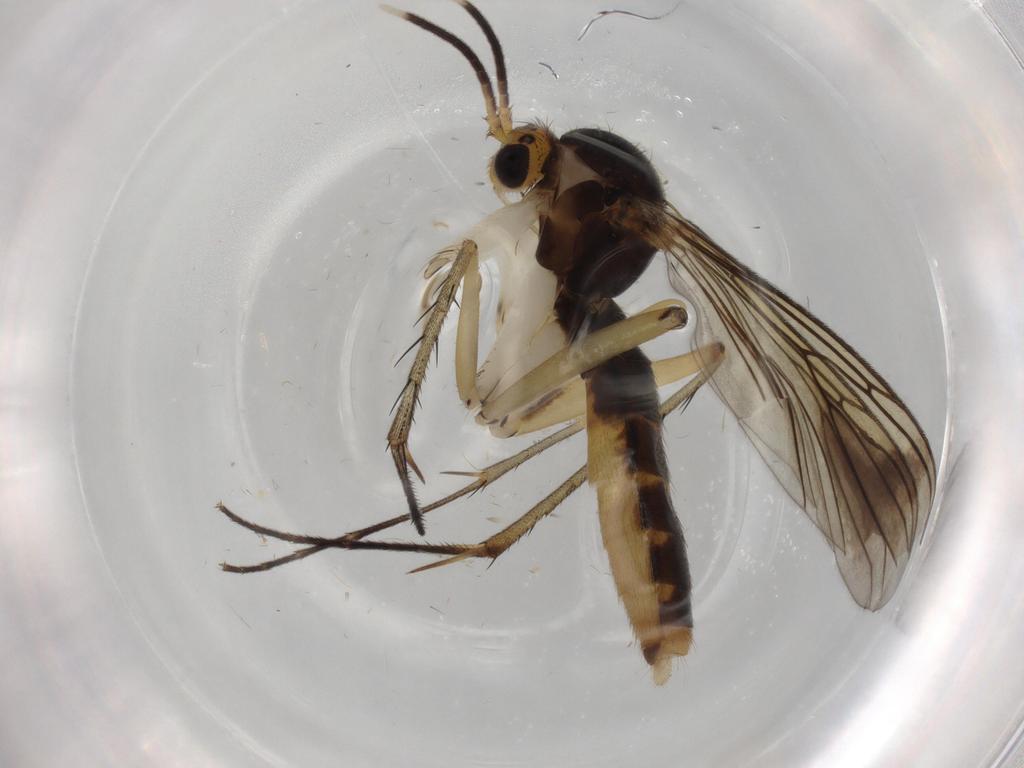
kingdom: Animalia
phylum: Arthropoda
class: Insecta
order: Diptera
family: Mycetophilidae
